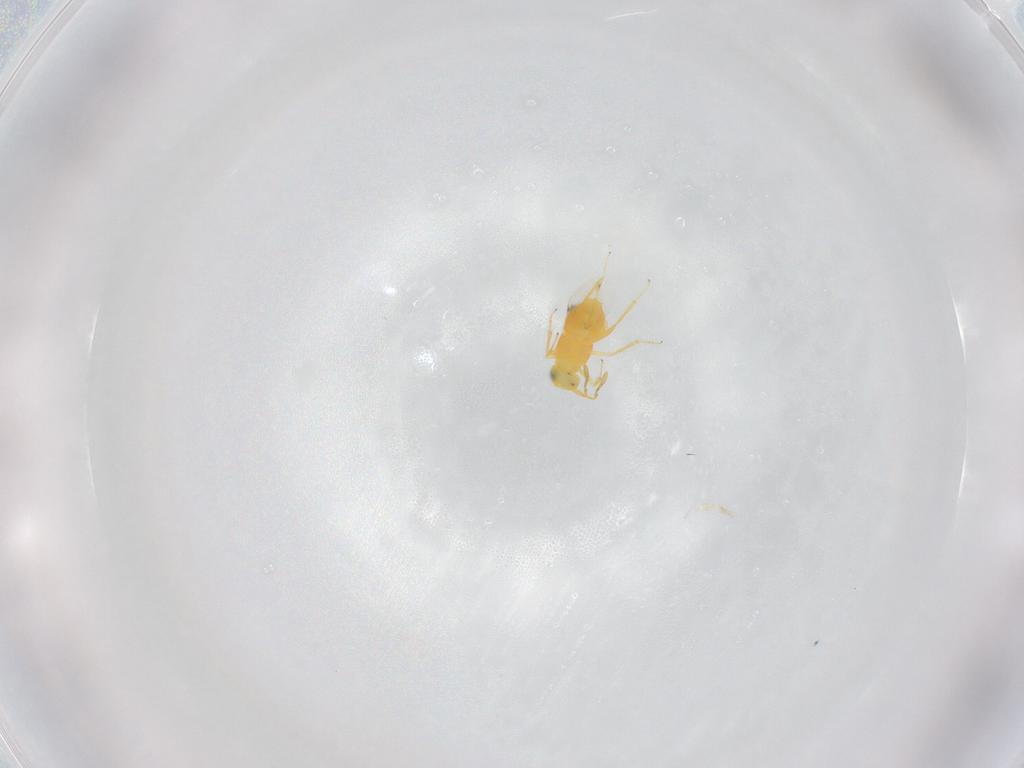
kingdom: Animalia
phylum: Arthropoda
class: Insecta
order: Hymenoptera
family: Encyrtidae
